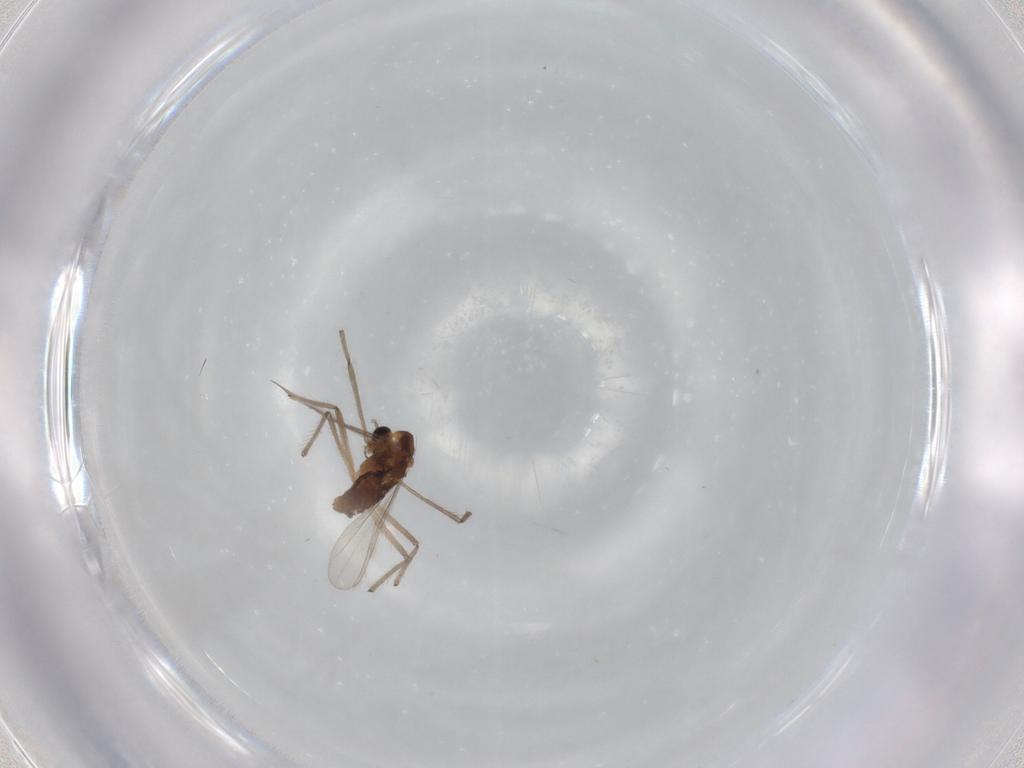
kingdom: Animalia
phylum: Arthropoda
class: Insecta
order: Diptera
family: Chironomidae
